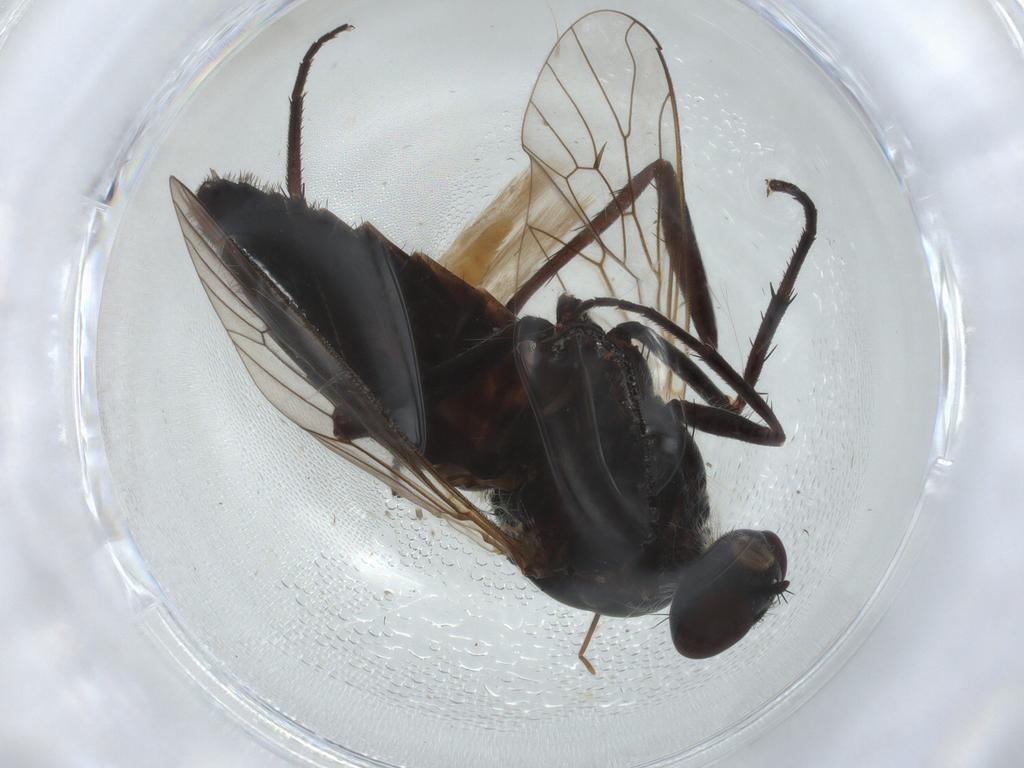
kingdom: Animalia
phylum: Arthropoda
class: Insecta
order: Diptera
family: Therevidae
